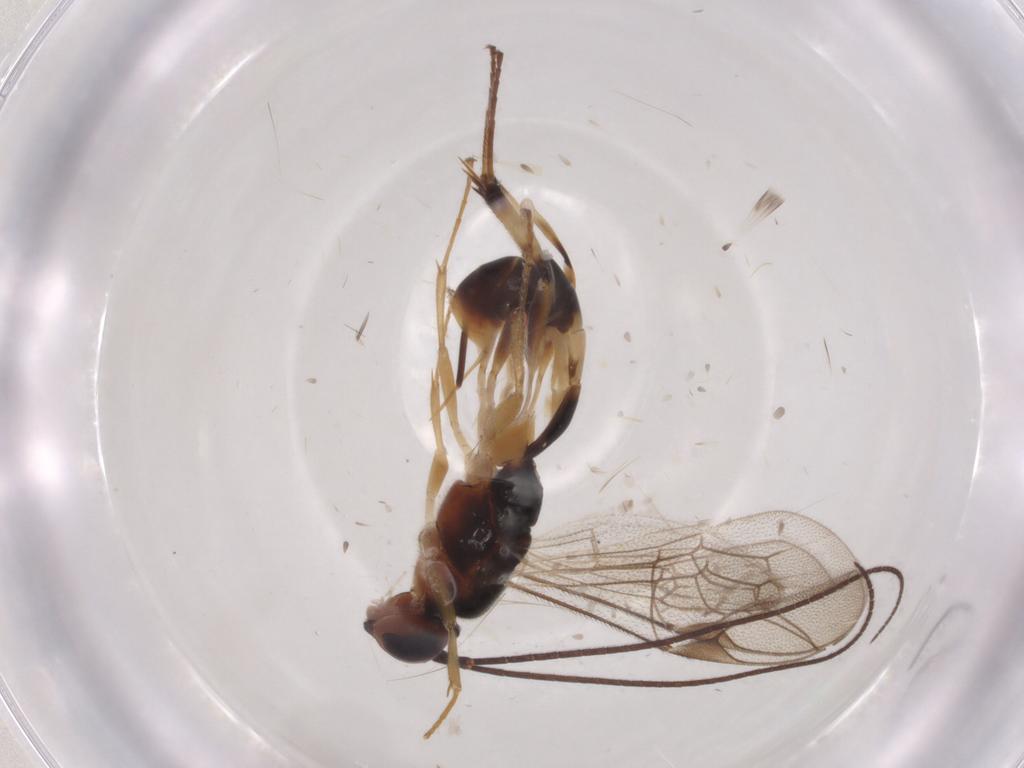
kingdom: Animalia
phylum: Arthropoda
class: Insecta
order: Hymenoptera
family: Ichneumonidae
